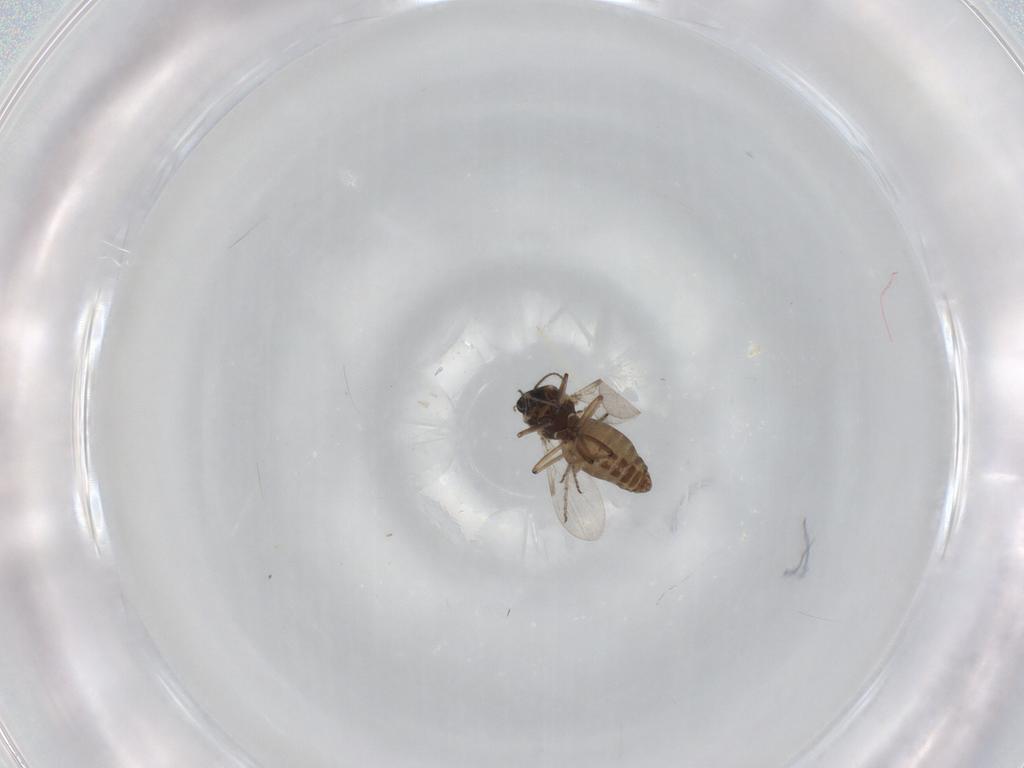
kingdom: Animalia
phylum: Arthropoda
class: Insecta
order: Diptera
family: Ceratopogonidae
